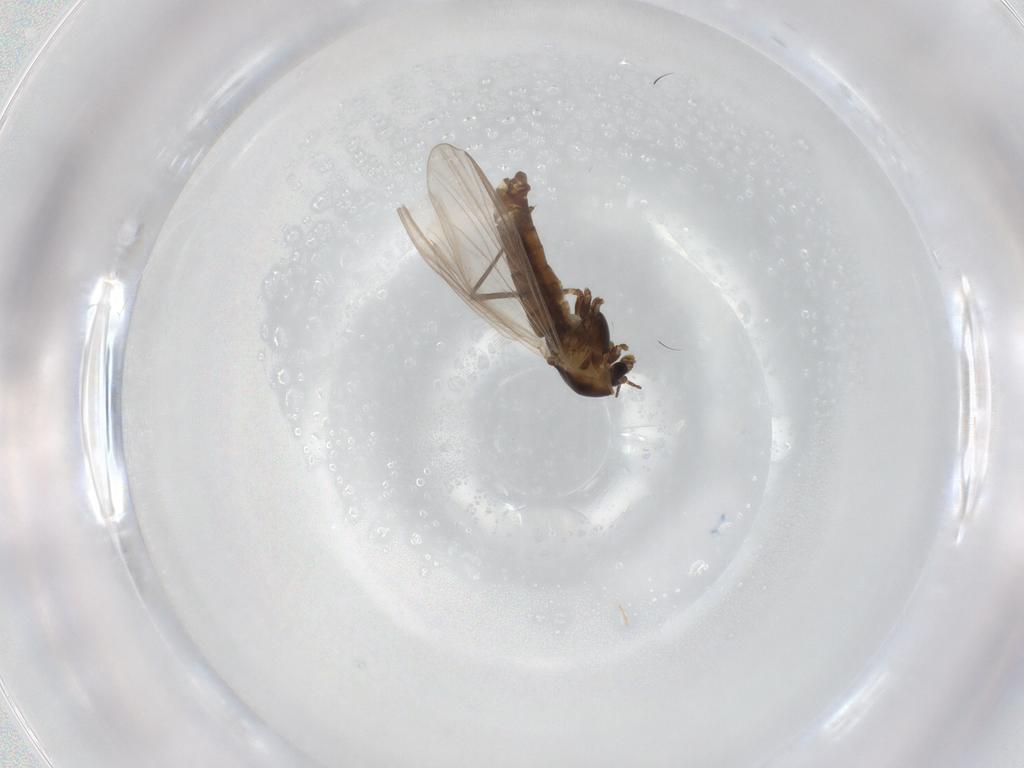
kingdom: Animalia
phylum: Arthropoda
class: Insecta
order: Diptera
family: Chironomidae
